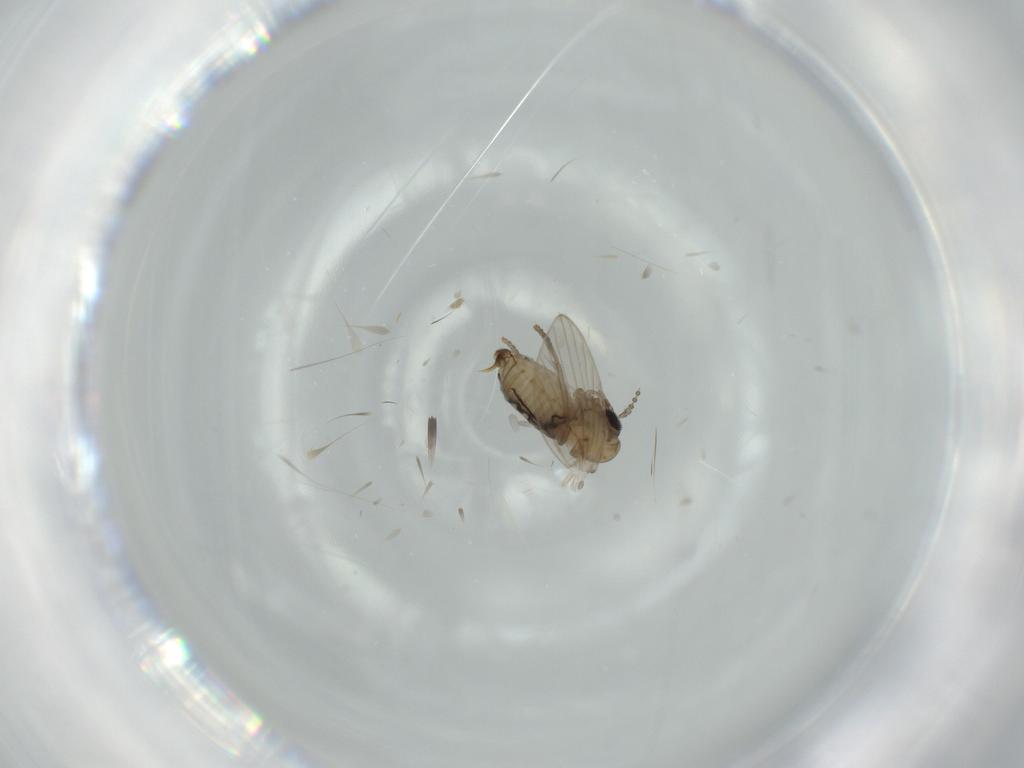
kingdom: Animalia
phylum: Arthropoda
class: Insecta
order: Diptera
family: Psychodidae
